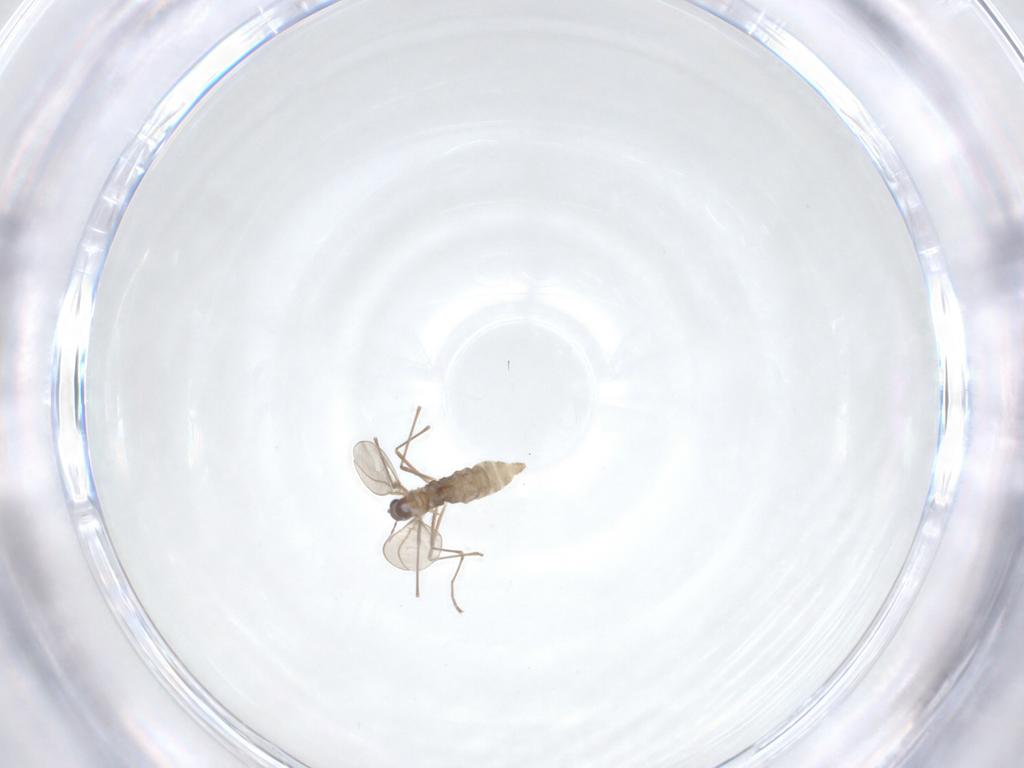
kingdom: Animalia
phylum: Arthropoda
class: Insecta
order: Diptera
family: Cecidomyiidae
